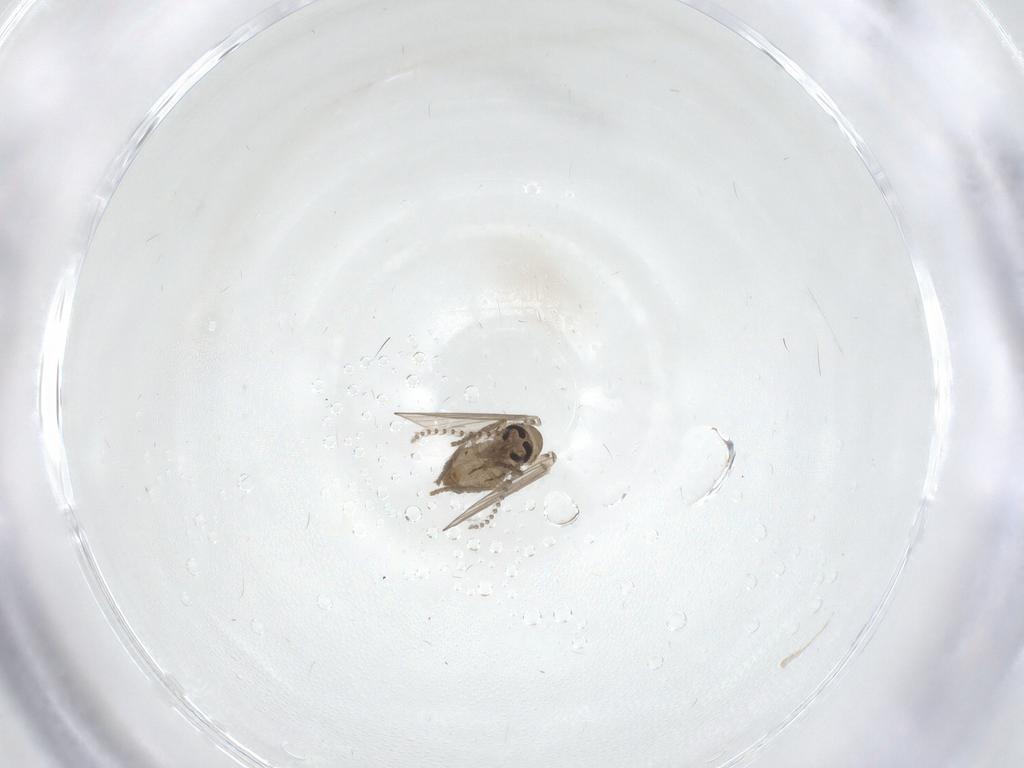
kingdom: Animalia
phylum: Arthropoda
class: Insecta
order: Diptera
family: Psychodidae
